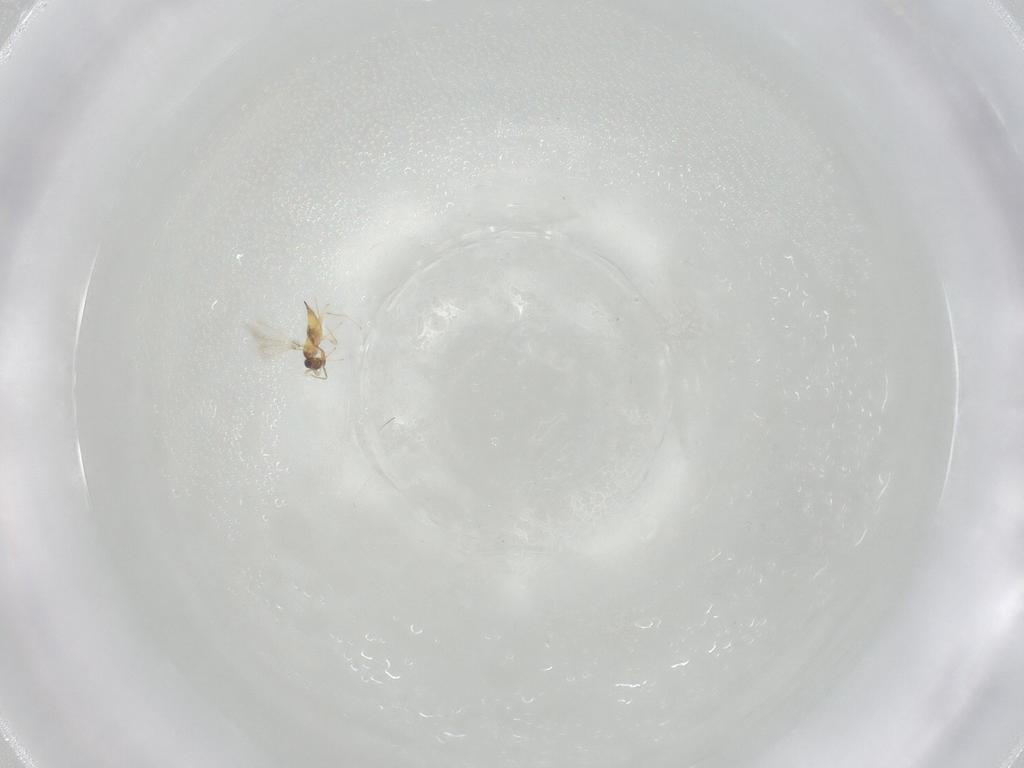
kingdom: Animalia
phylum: Arthropoda
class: Insecta
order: Hymenoptera
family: Mymaridae
